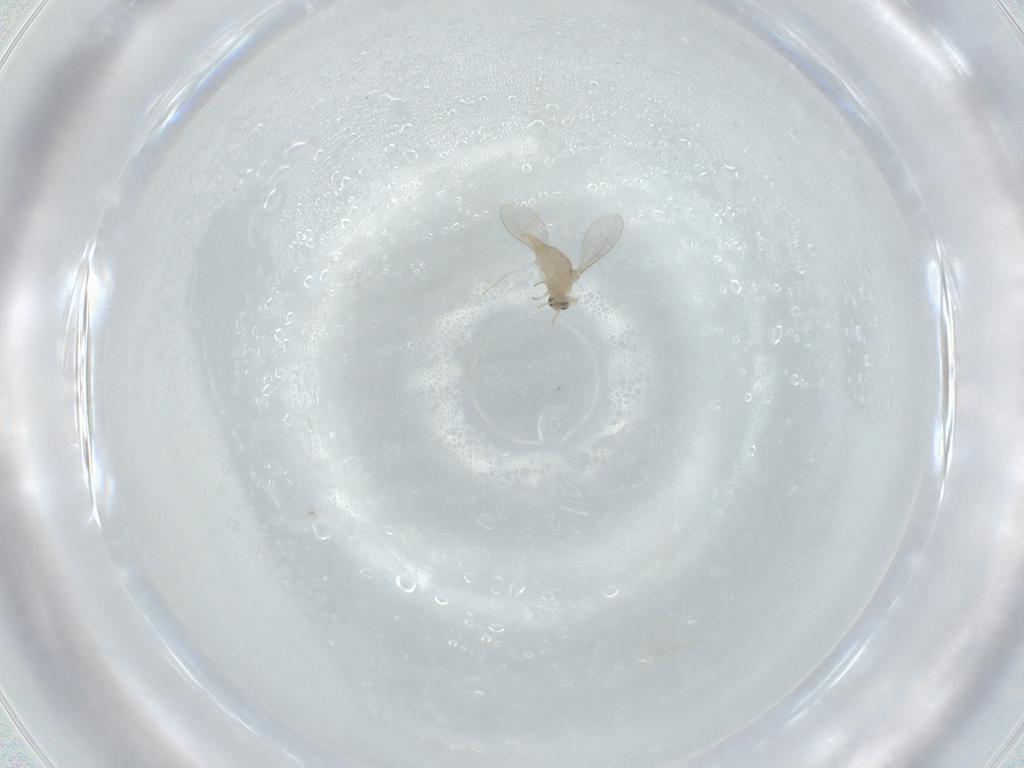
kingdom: Animalia
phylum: Arthropoda
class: Insecta
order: Diptera
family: Cecidomyiidae
